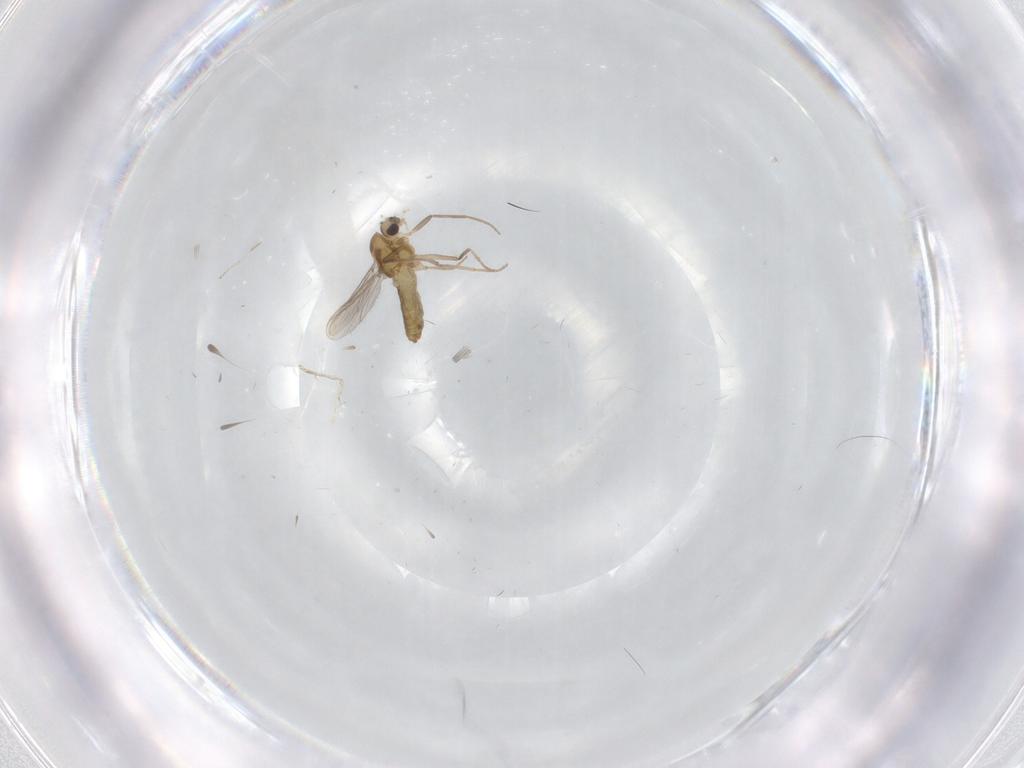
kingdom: Animalia
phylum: Arthropoda
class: Insecta
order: Diptera
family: Chironomidae
